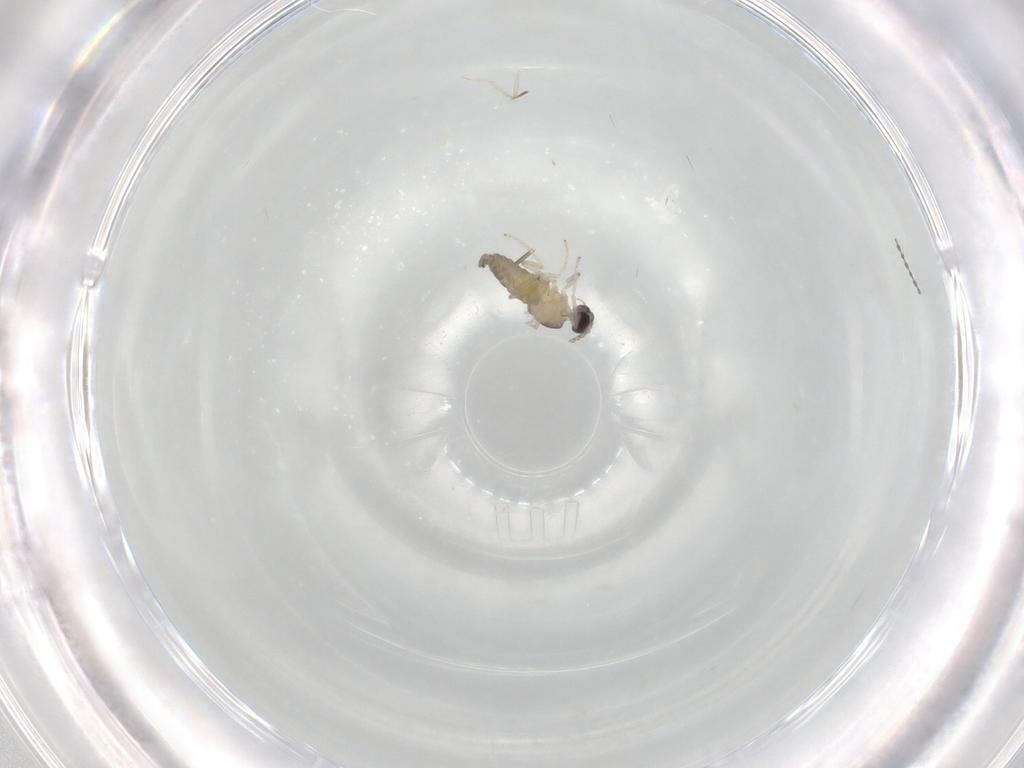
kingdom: Animalia
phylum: Arthropoda
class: Insecta
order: Diptera
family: Cecidomyiidae
